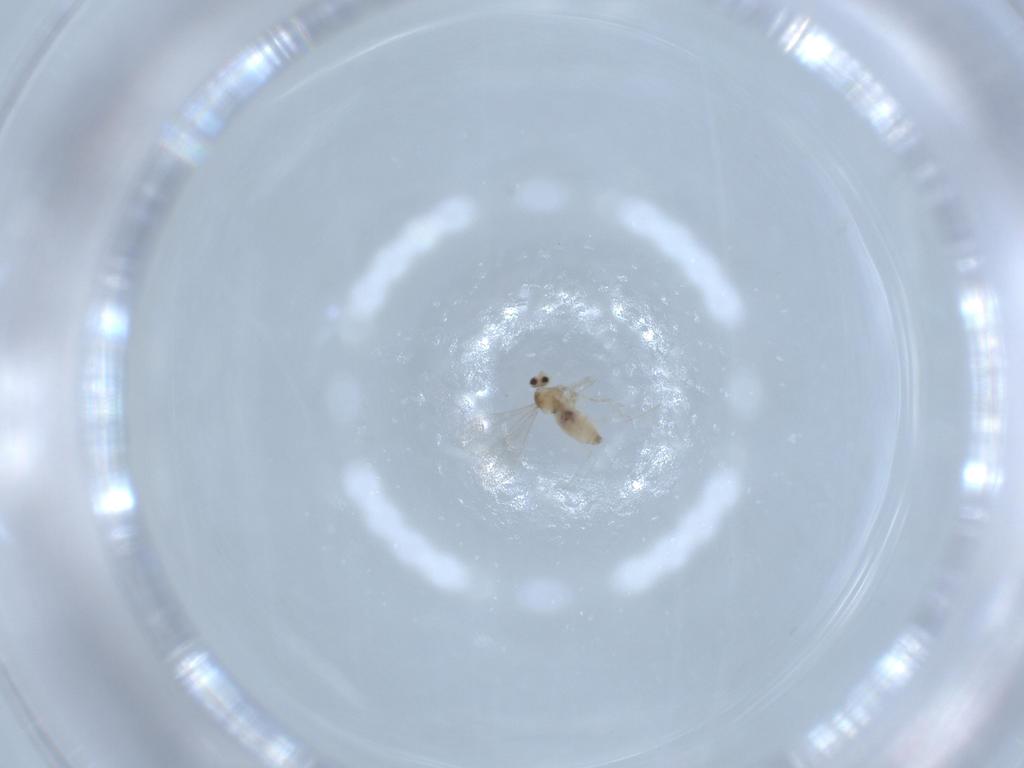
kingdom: Animalia
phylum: Arthropoda
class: Insecta
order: Diptera
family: Cecidomyiidae
